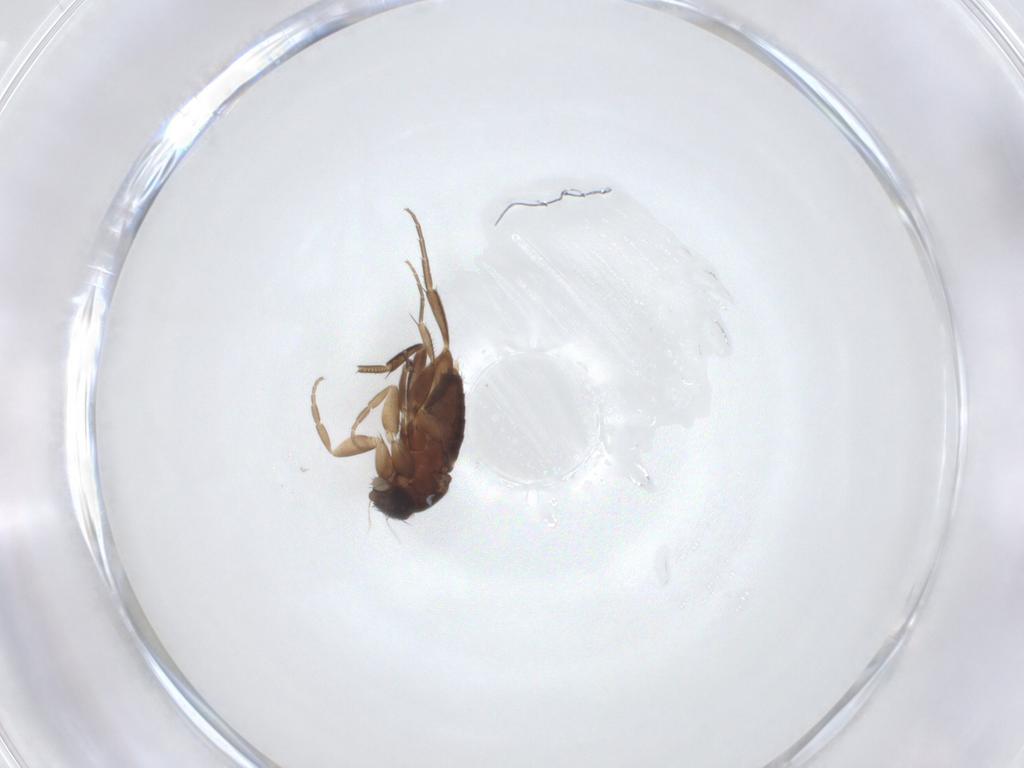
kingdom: Animalia
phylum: Arthropoda
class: Insecta
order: Diptera
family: Phoridae
